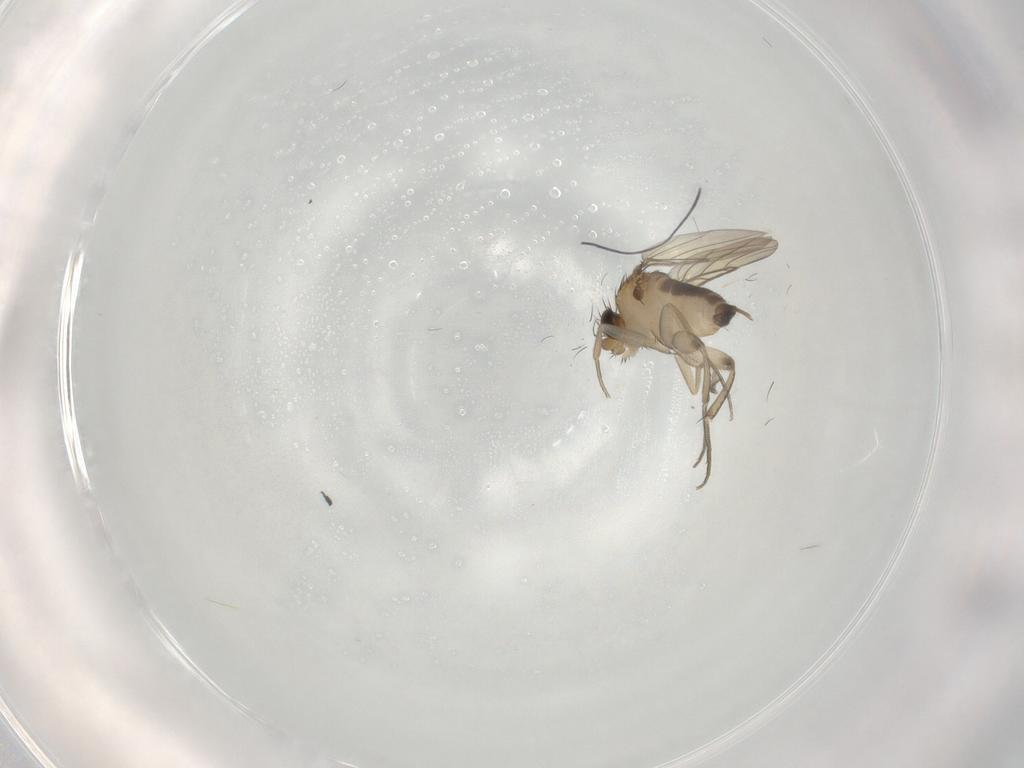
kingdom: Animalia
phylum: Arthropoda
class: Insecta
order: Diptera
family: Phoridae
